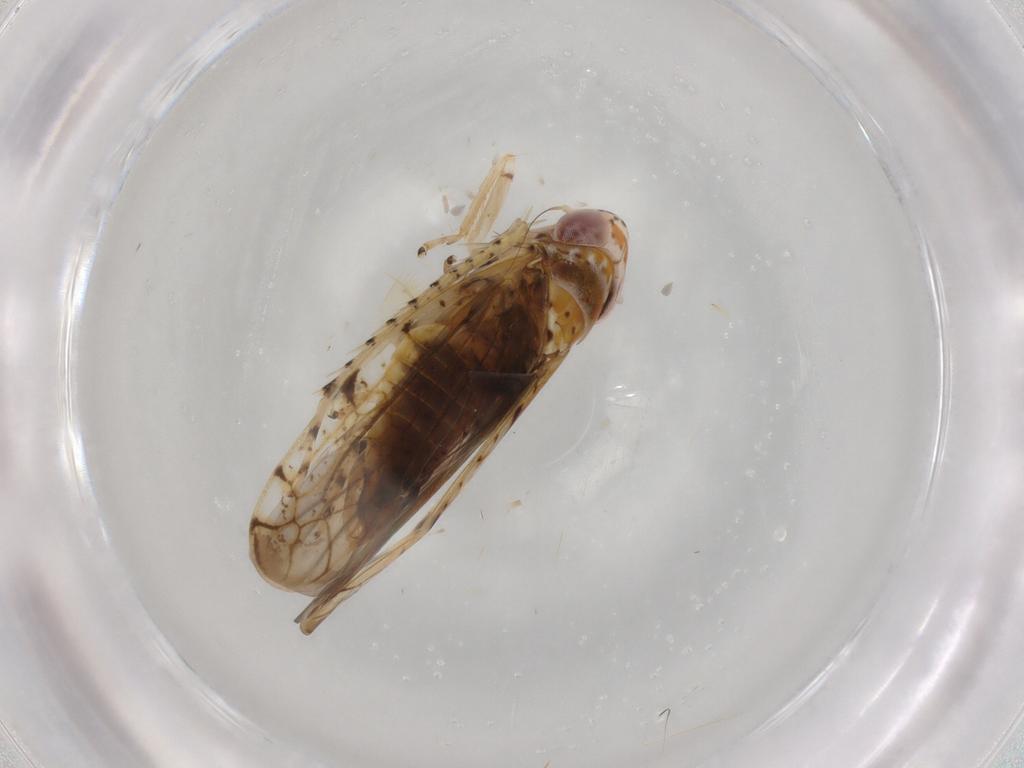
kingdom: Animalia
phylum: Arthropoda
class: Insecta
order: Hemiptera
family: Cicadellidae
